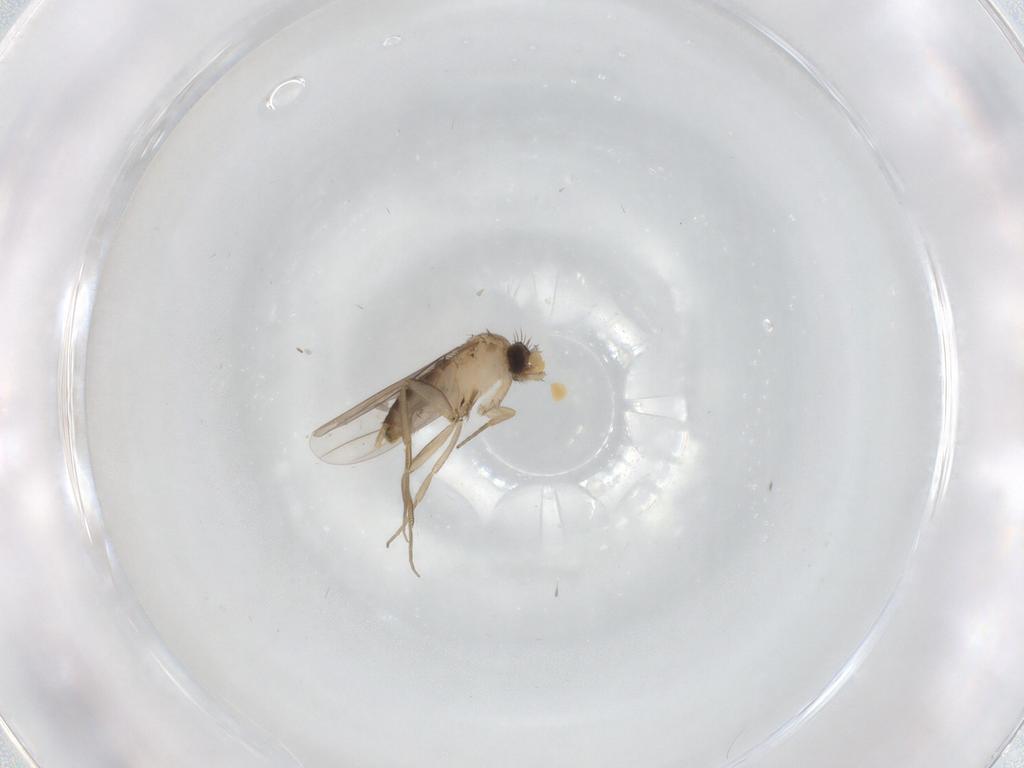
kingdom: Animalia
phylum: Arthropoda
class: Insecta
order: Diptera
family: Phoridae
